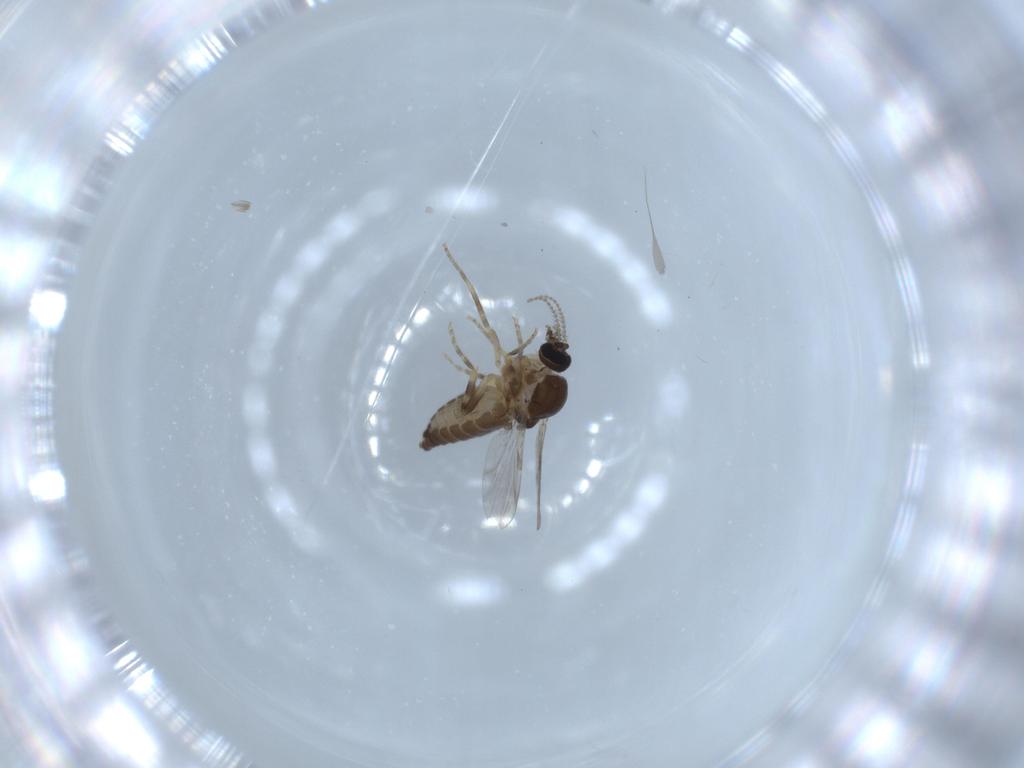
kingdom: Animalia
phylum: Arthropoda
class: Insecta
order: Diptera
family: Ceratopogonidae
